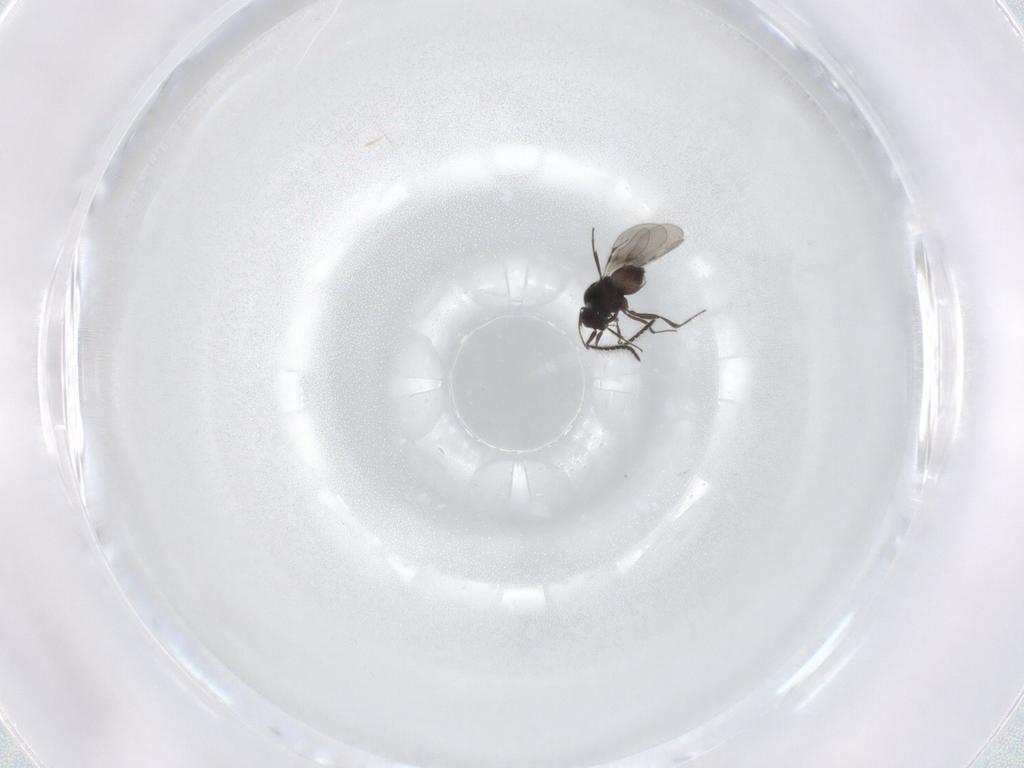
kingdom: Animalia
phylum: Arthropoda
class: Insecta
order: Hymenoptera
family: Ceraphronidae
